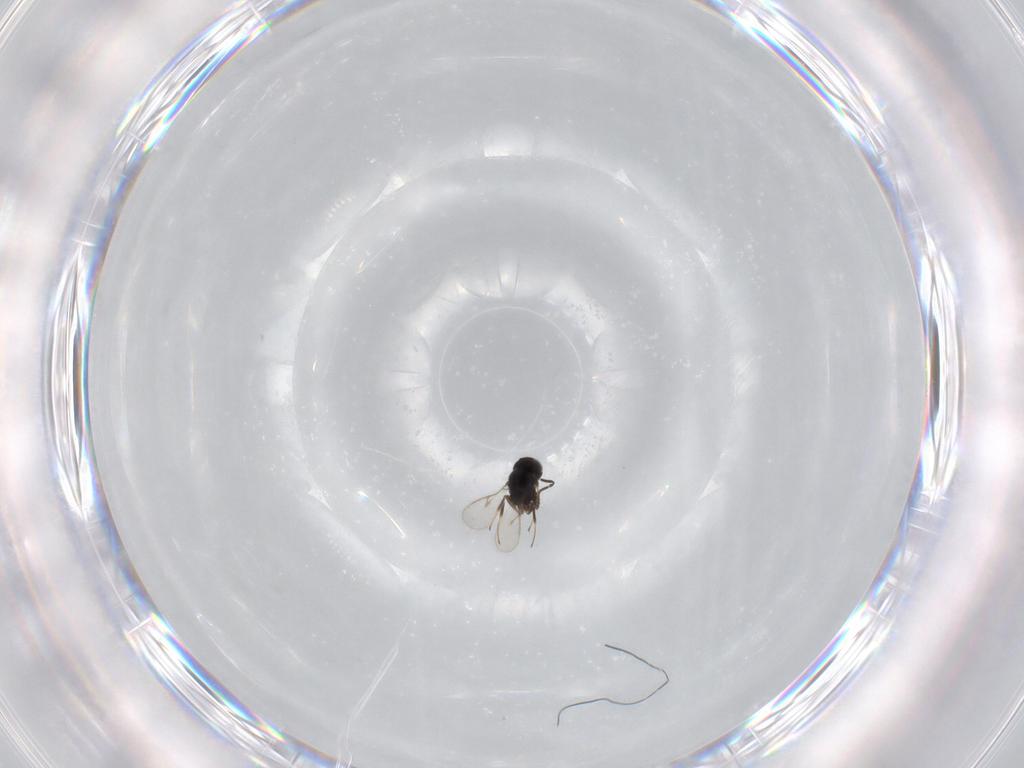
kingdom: Animalia
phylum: Arthropoda
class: Insecta
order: Hymenoptera
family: Scelionidae
